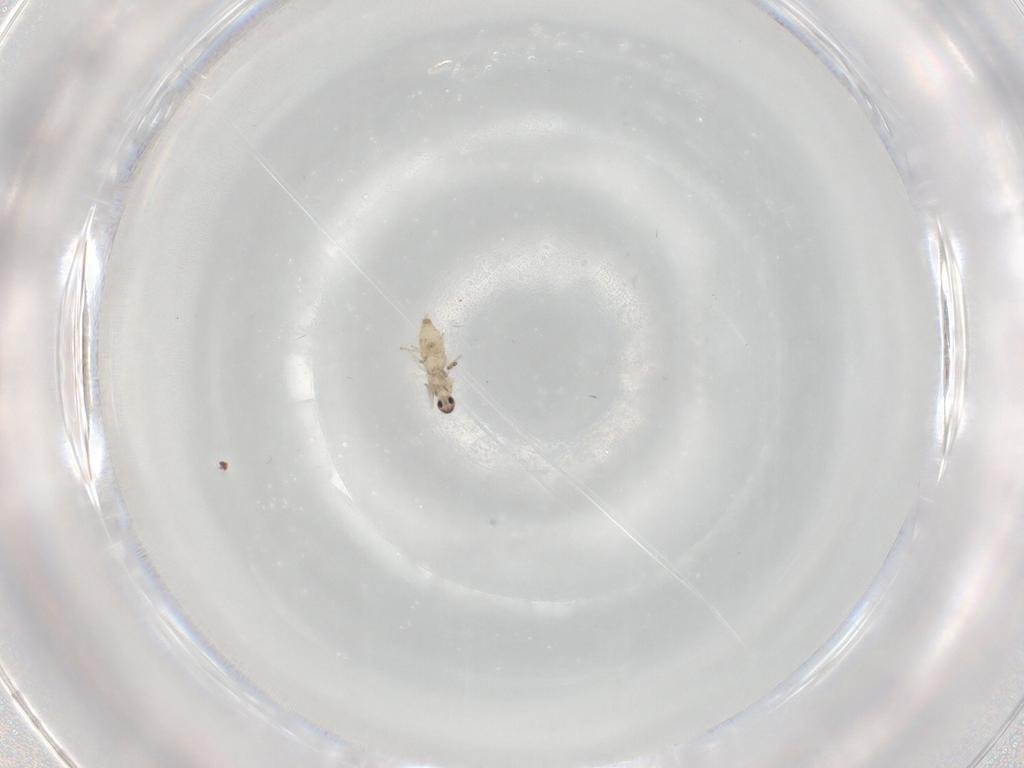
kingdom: Animalia
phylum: Arthropoda
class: Insecta
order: Diptera
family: Cecidomyiidae
